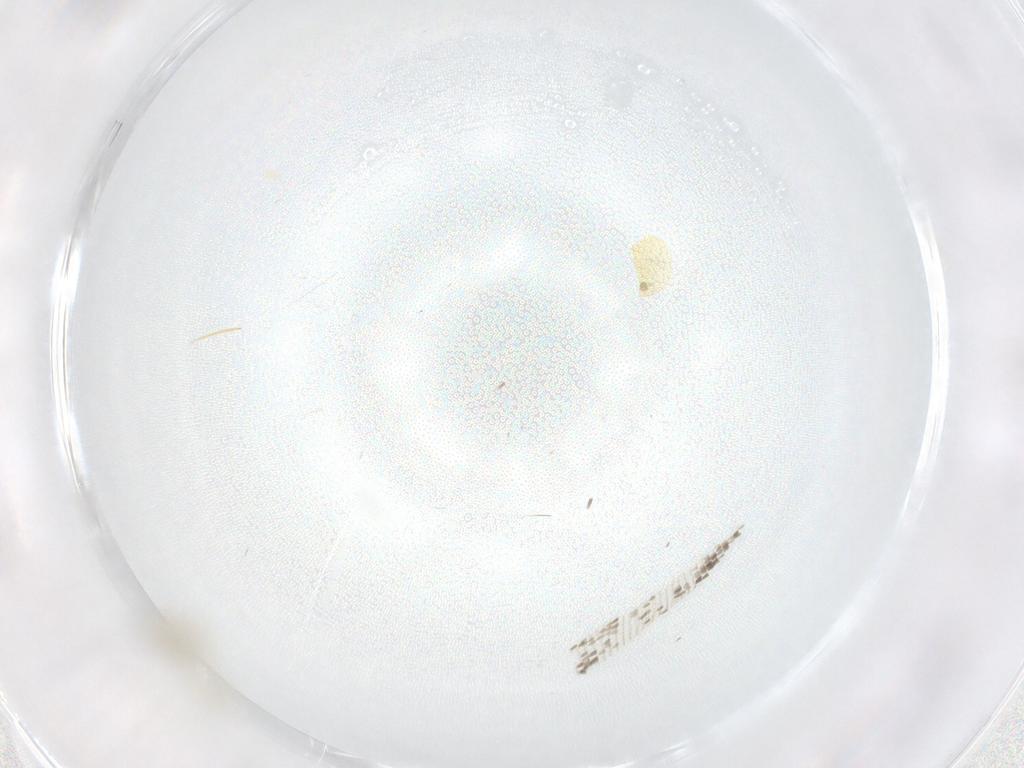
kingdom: Animalia
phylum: Arthropoda
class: Insecta
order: Diptera
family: Cecidomyiidae
